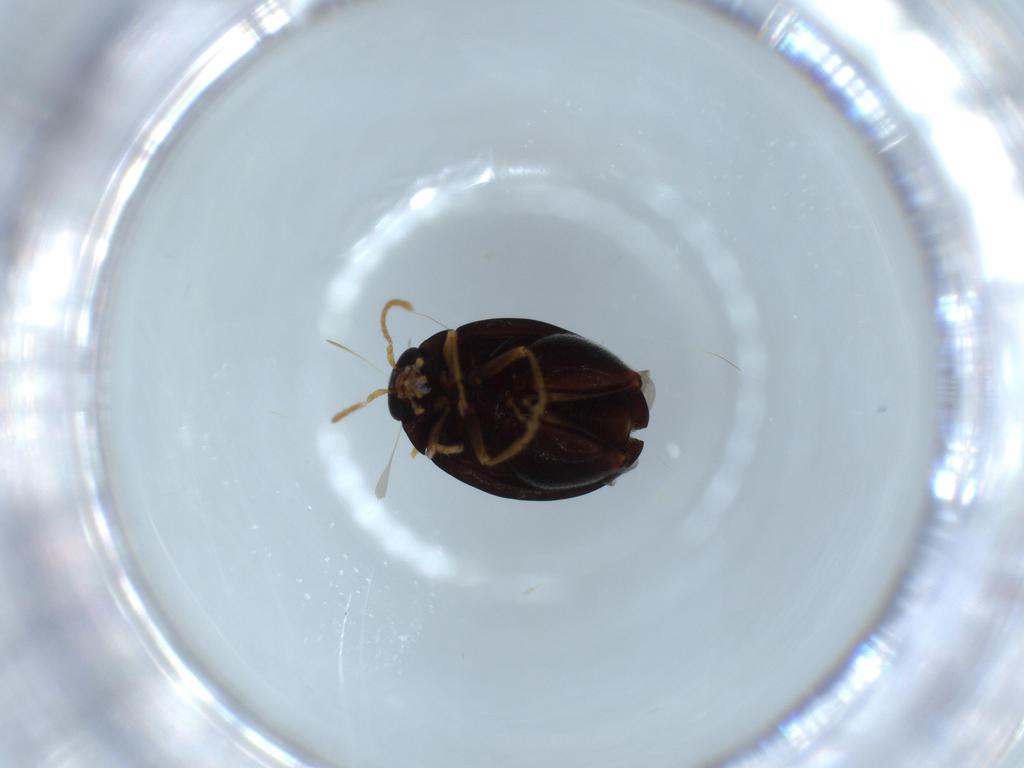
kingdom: Animalia
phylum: Arthropoda
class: Insecta
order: Coleoptera
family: Chrysomelidae
